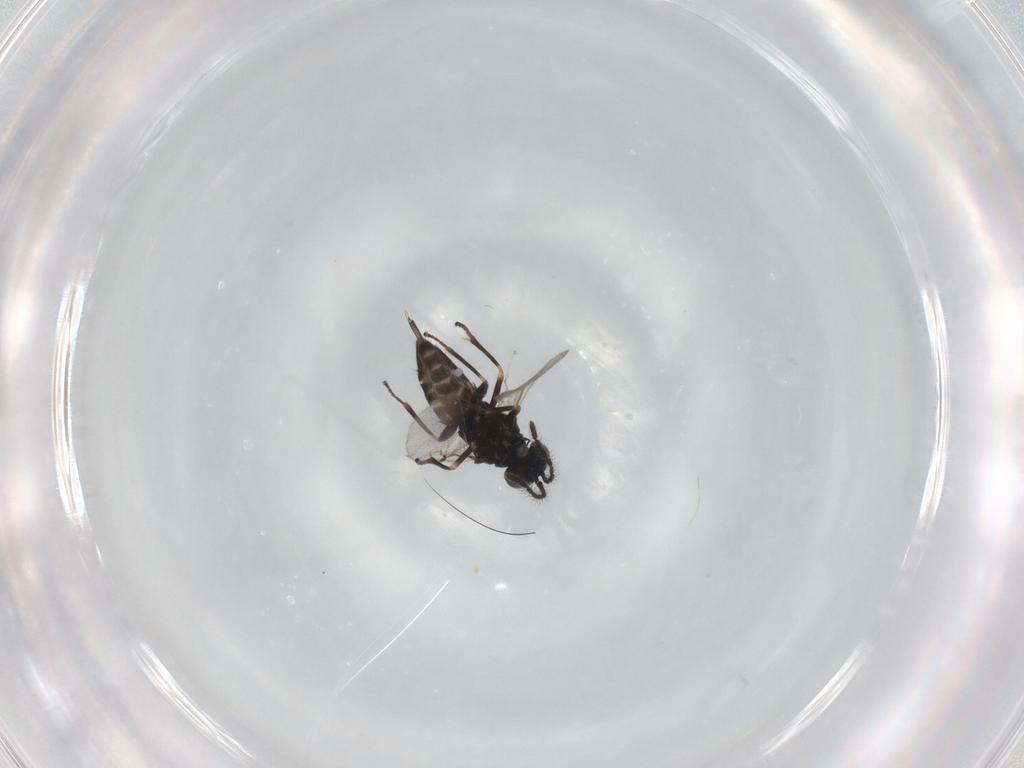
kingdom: Animalia
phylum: Arthropoda
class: Insecta
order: Hymenoptera
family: Encyrtidae
